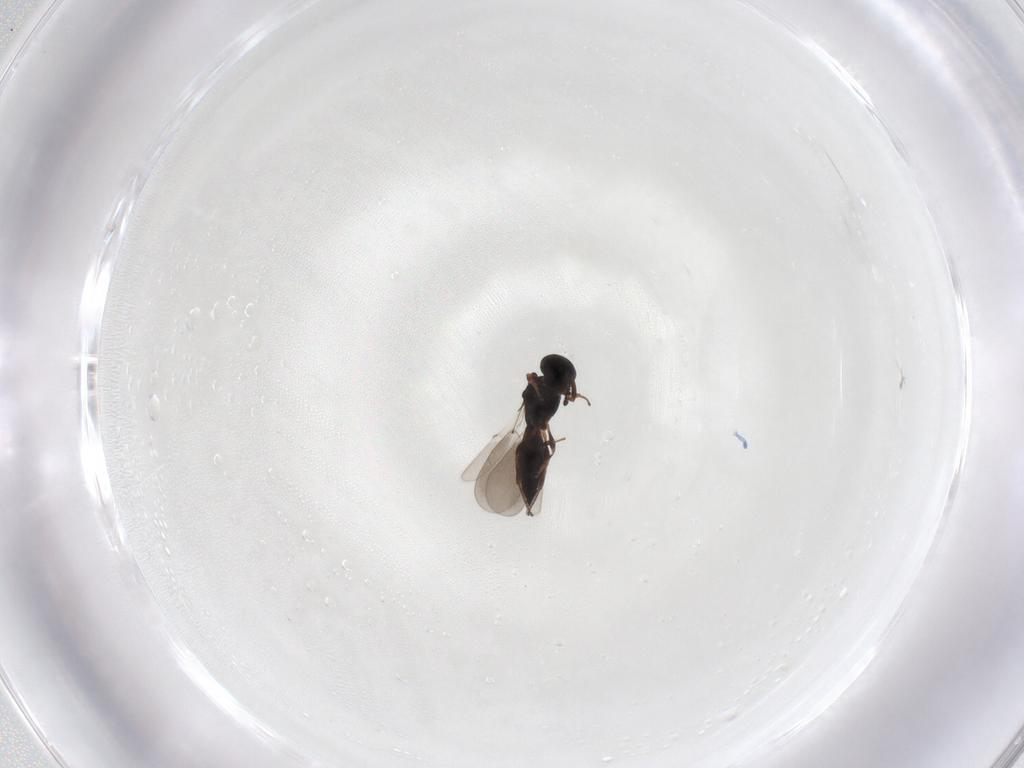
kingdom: Animalia
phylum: Arthropoda
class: Insecta
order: Hymenoptera
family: Platygastridae
